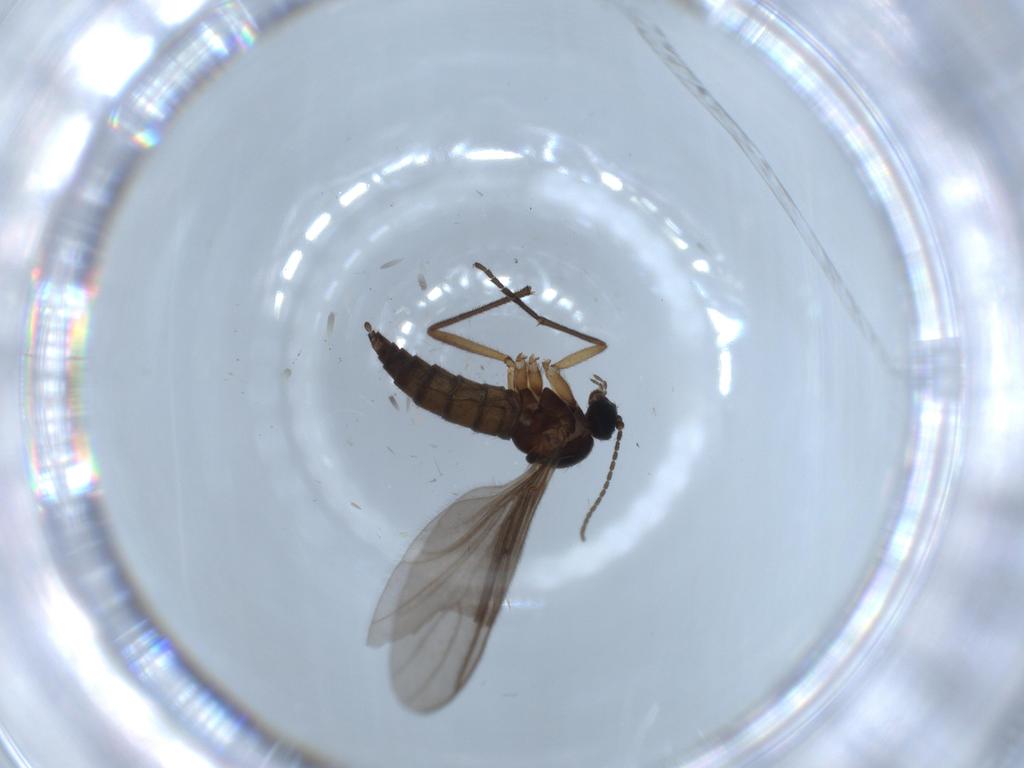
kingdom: Animalia
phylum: Arthropoda
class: Insecta
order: Diptera
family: Sciaridae
